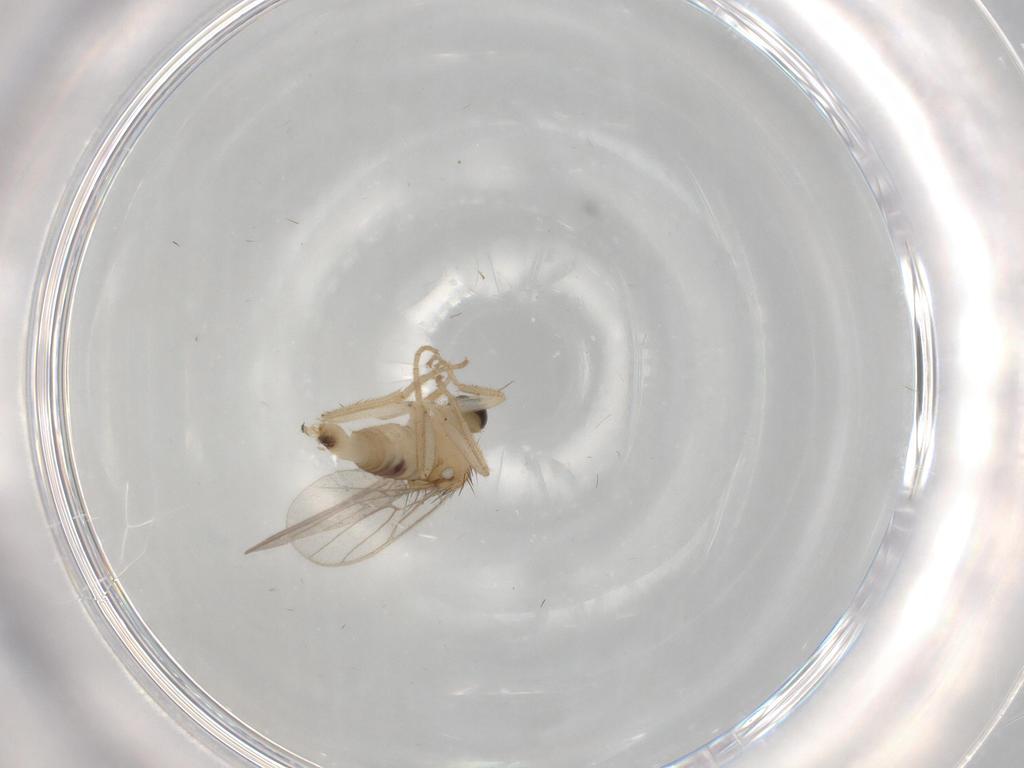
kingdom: Animalia
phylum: Arthropoda
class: Insecta
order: Diptera
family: Hybotidae
